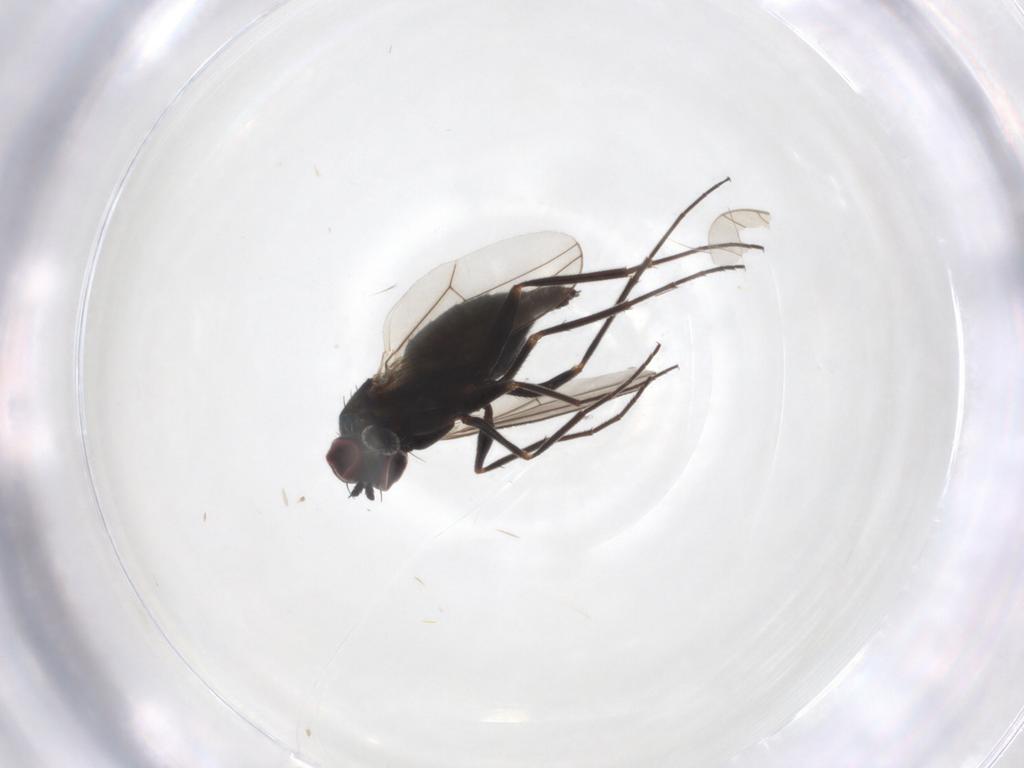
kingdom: Animalia
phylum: Arthropoda
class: Insecta
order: Diptera
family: Dolichopodidae
